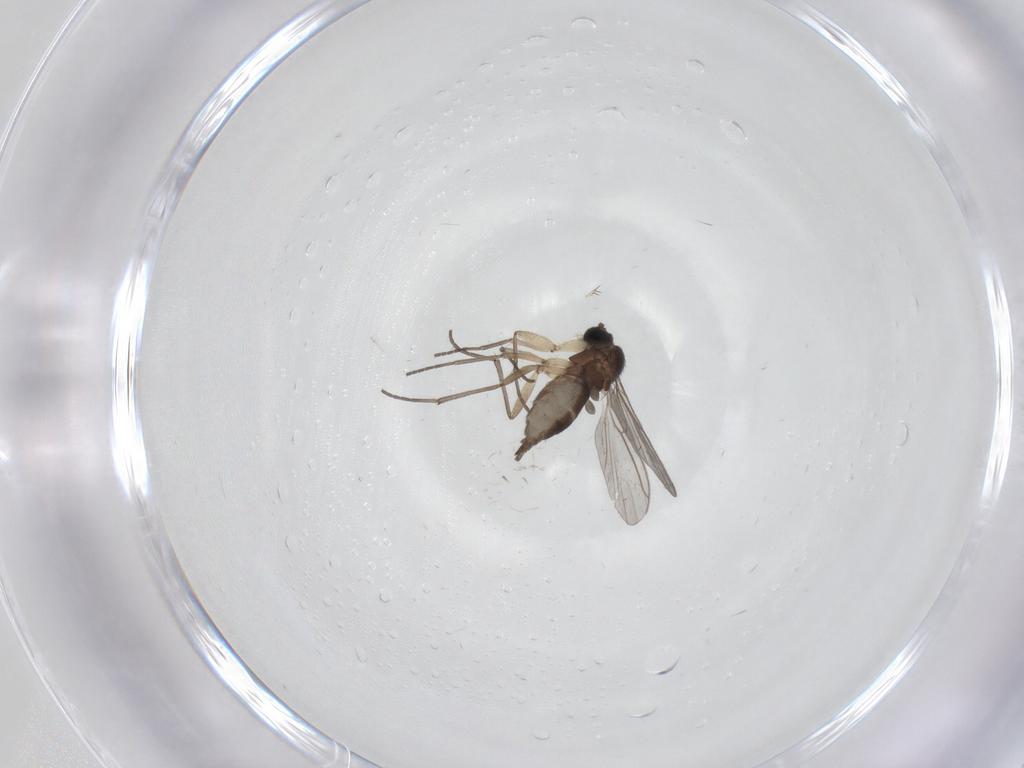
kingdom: Animalia
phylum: Arthropoda
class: Insecta
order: Diptera
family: Sciaridae
